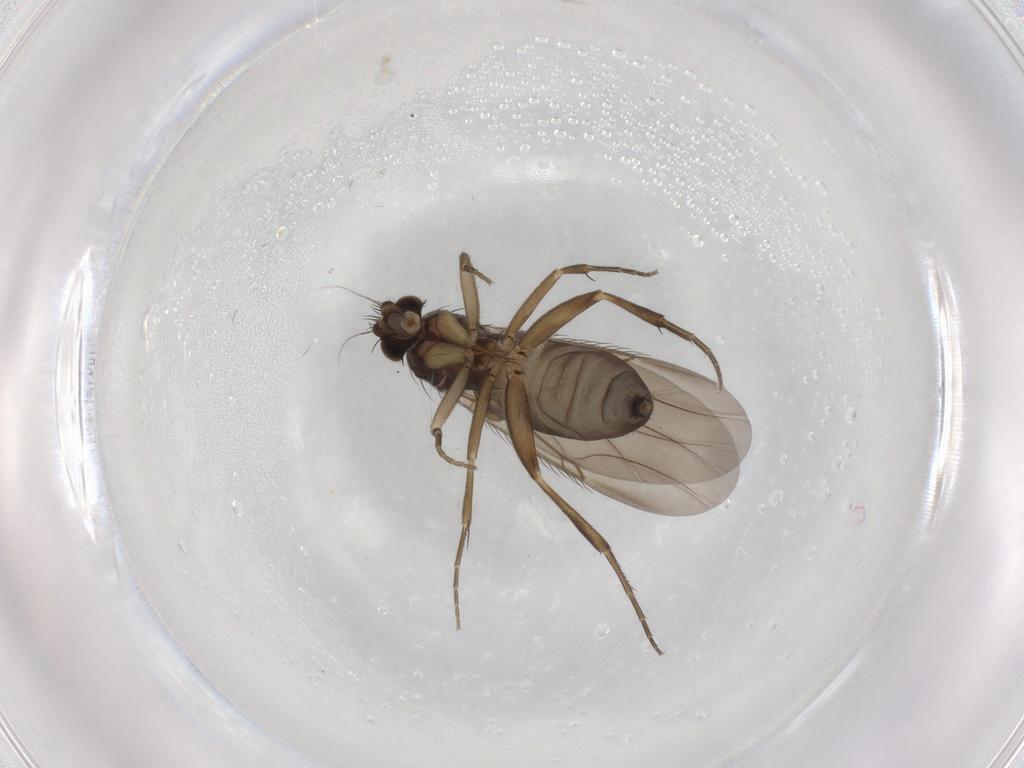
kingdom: Animalia
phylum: Arthropoda
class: Insecta
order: Diptera
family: Phoridae
